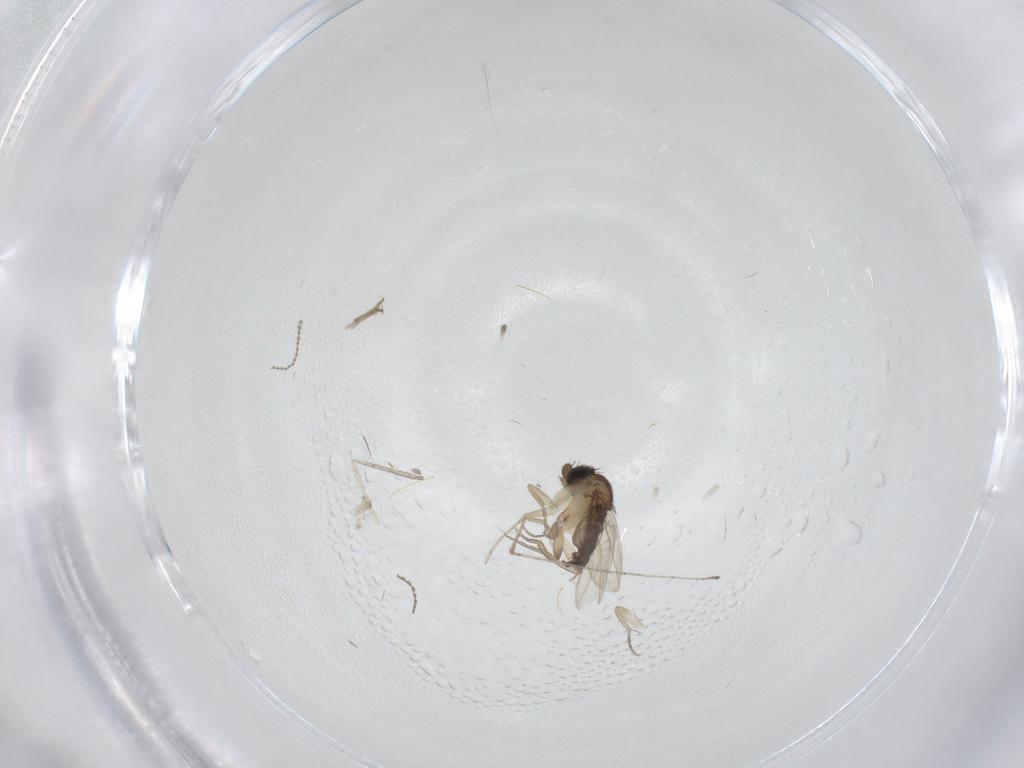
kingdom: Animalia
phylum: Arthropoda
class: Insecta
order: Diptera
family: Phoridae
